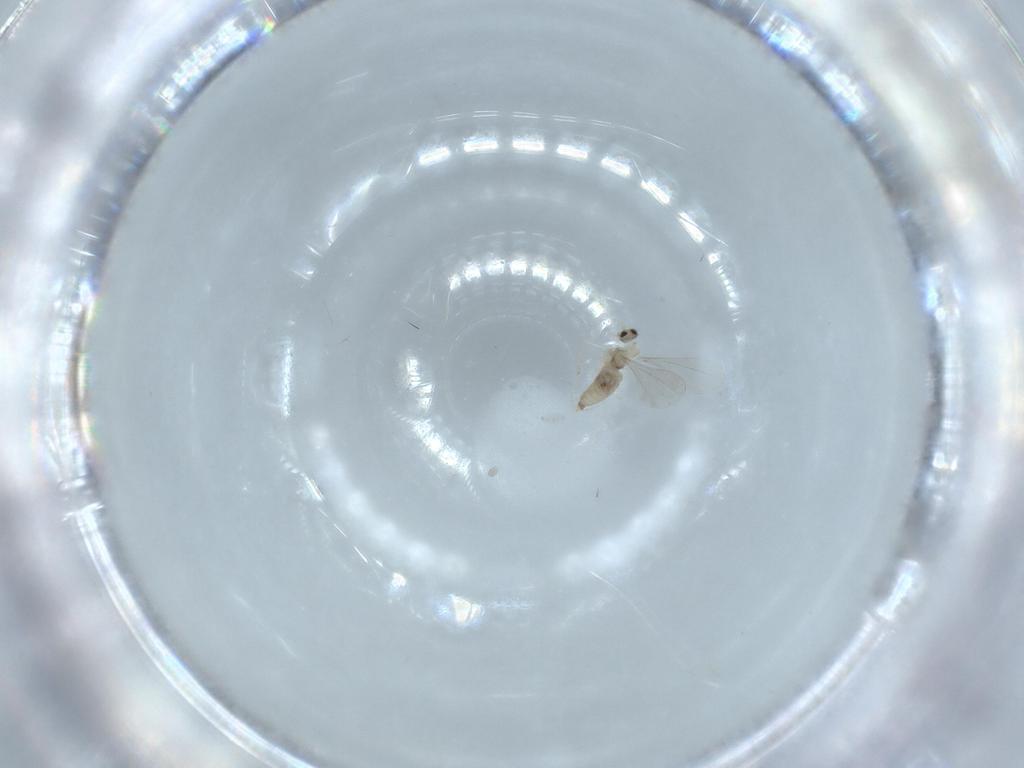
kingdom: Animalia
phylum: Arthropoda
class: Insecta
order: Diptera
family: Cecidomyiidae
